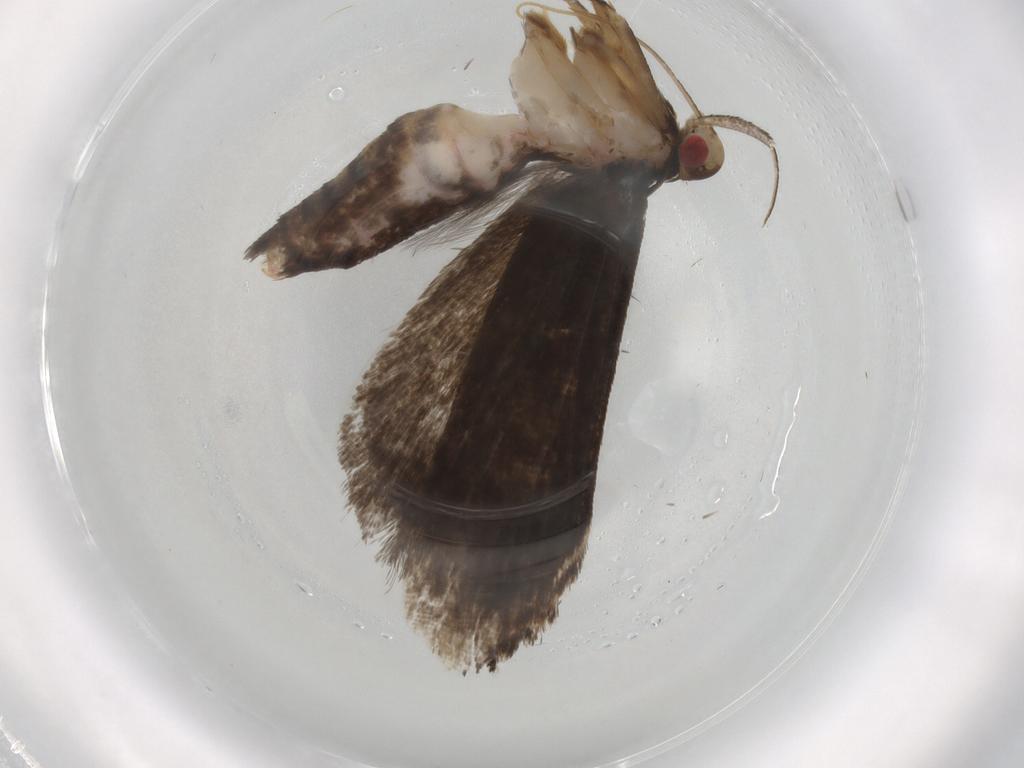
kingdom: Animalia
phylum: Arthropoda
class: Insecta
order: Lepidoptera
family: Gelechiidae
